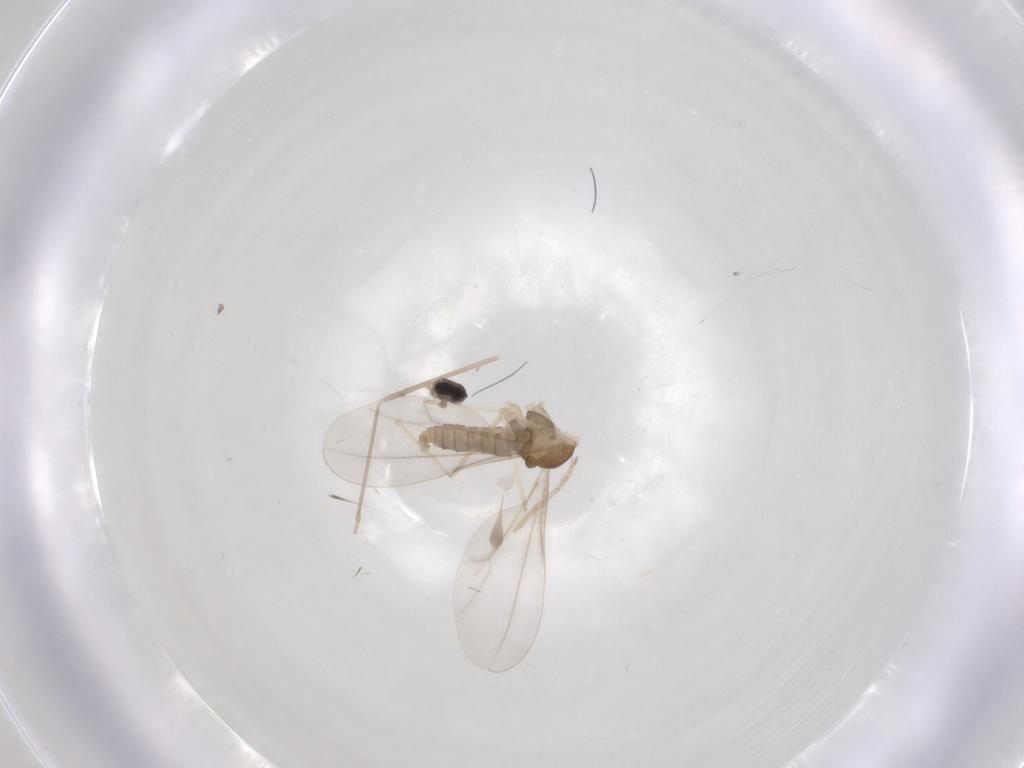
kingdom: Animalia
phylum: Arthropoda
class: Insecta
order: Diptera
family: Cecidomyiidae
